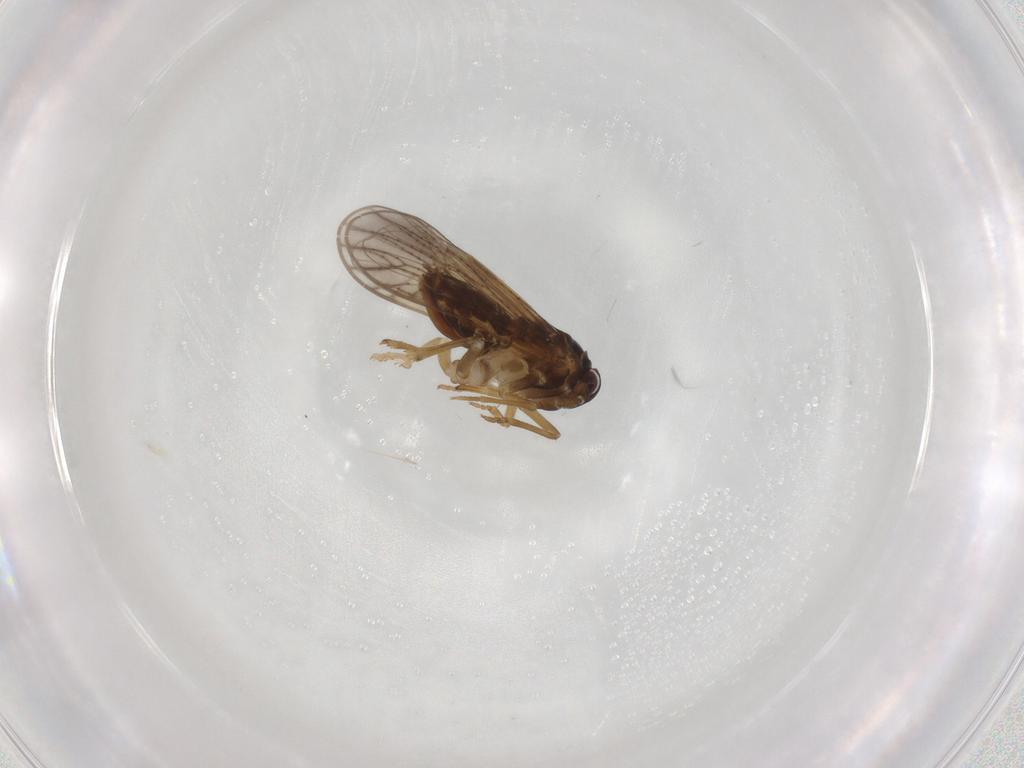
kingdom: Animalia
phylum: Arthropoda
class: Insecta
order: Hemiptera
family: Delphacidae
